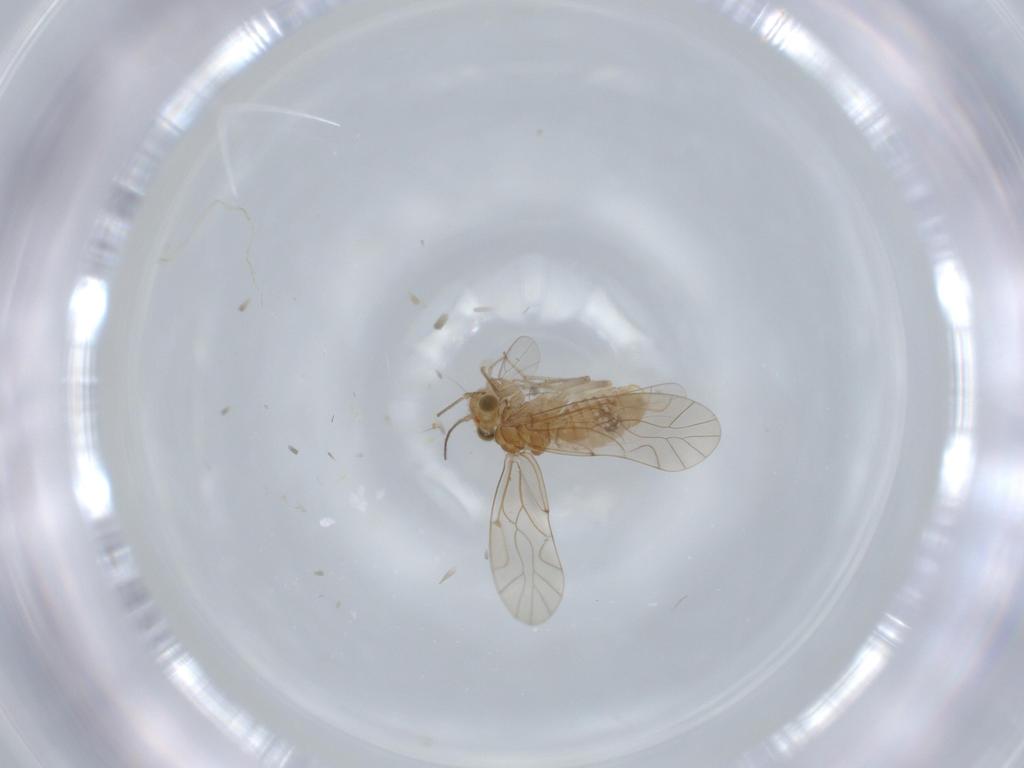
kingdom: Animalia
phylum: Arthropoda
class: Insecta
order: Psocodea
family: Lachesillidae
